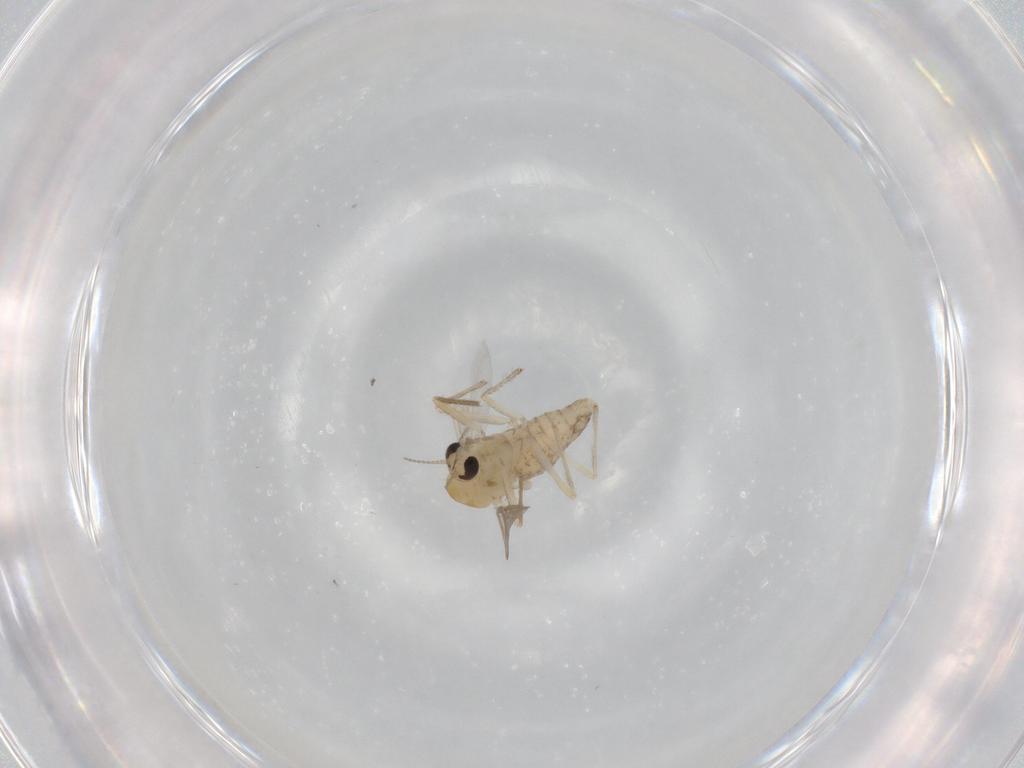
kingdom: Animalia
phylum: Arthropoda
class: Insecta
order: Diptera
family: Chironomidae
